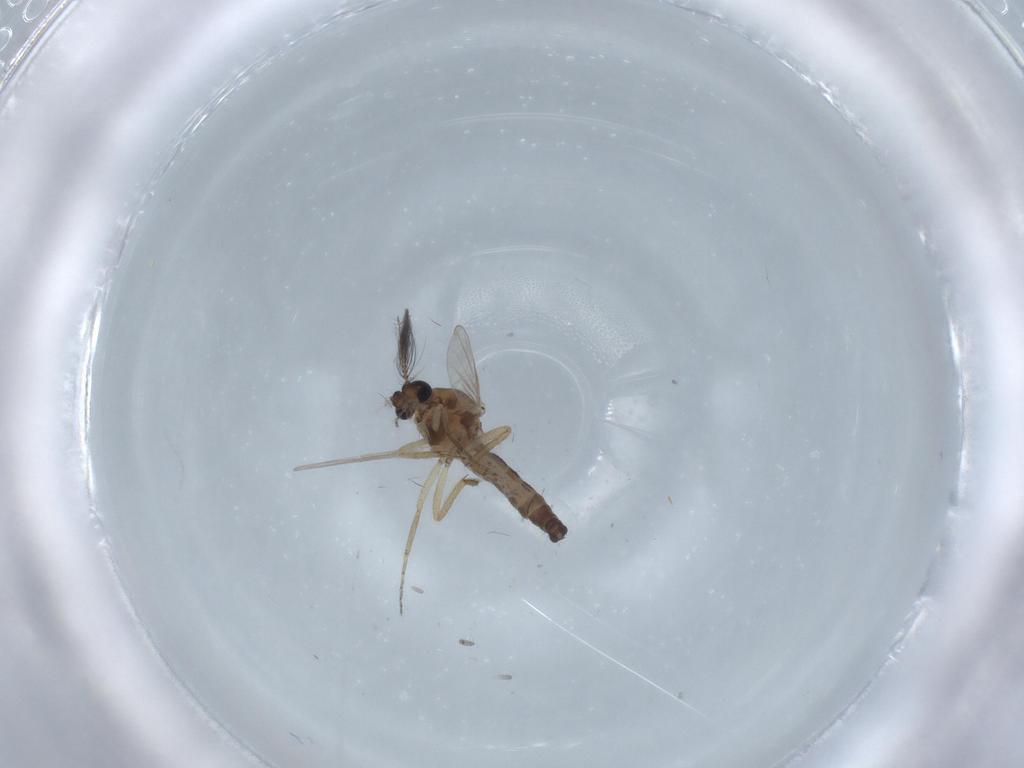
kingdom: Animalia
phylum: Arthropoda
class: Insecta
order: Diptera
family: Ceratopogonidae
